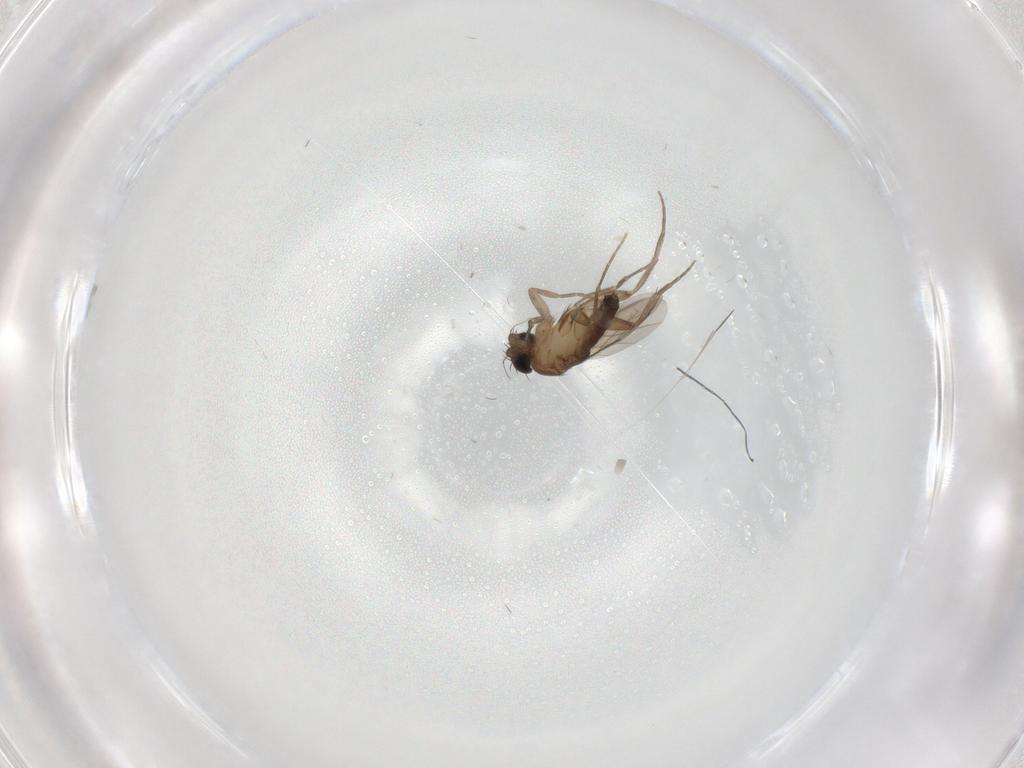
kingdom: Animalia
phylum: Arthropoda
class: Insecta
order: Diptera
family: Phoridae
